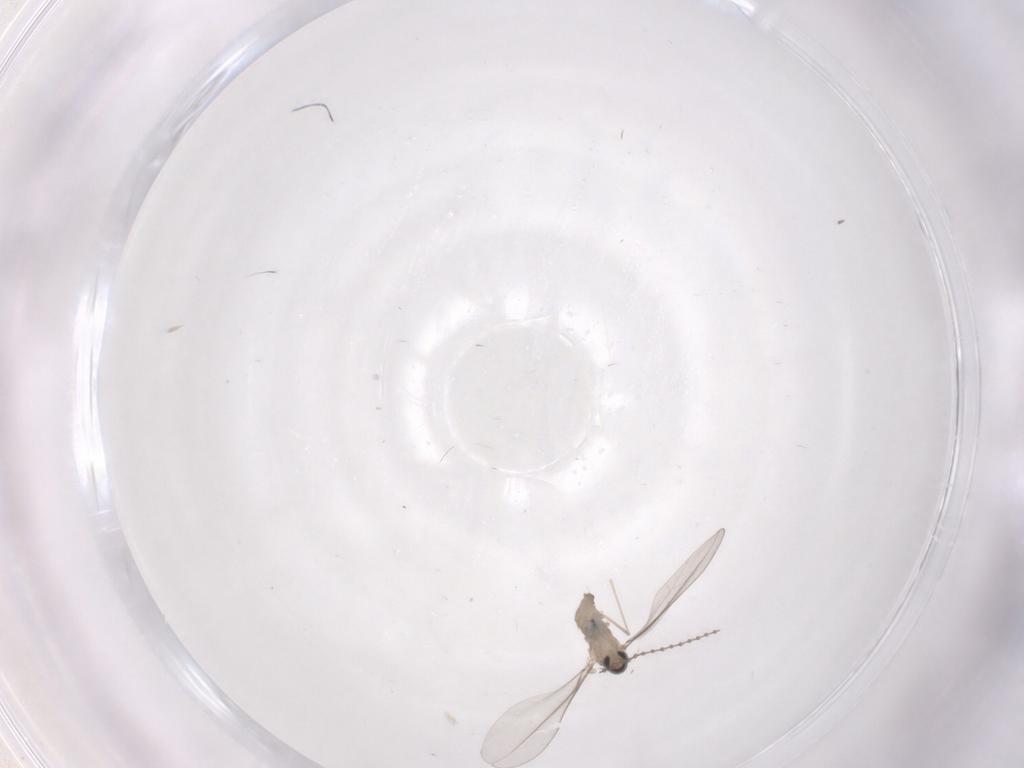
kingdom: Animalia
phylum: Arthropoda
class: Insecta
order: Diptera
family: Cecidomyiidae
